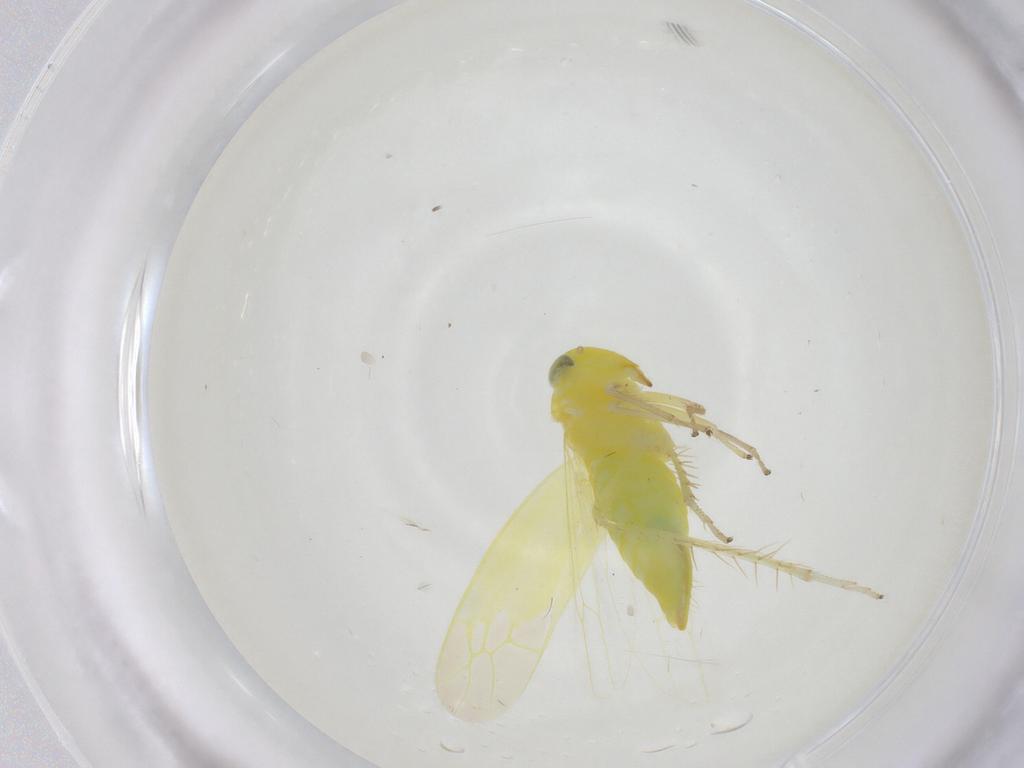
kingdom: Animalia
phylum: Arthropoda
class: Insecta
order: Hemiptera
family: Cicadellidae
